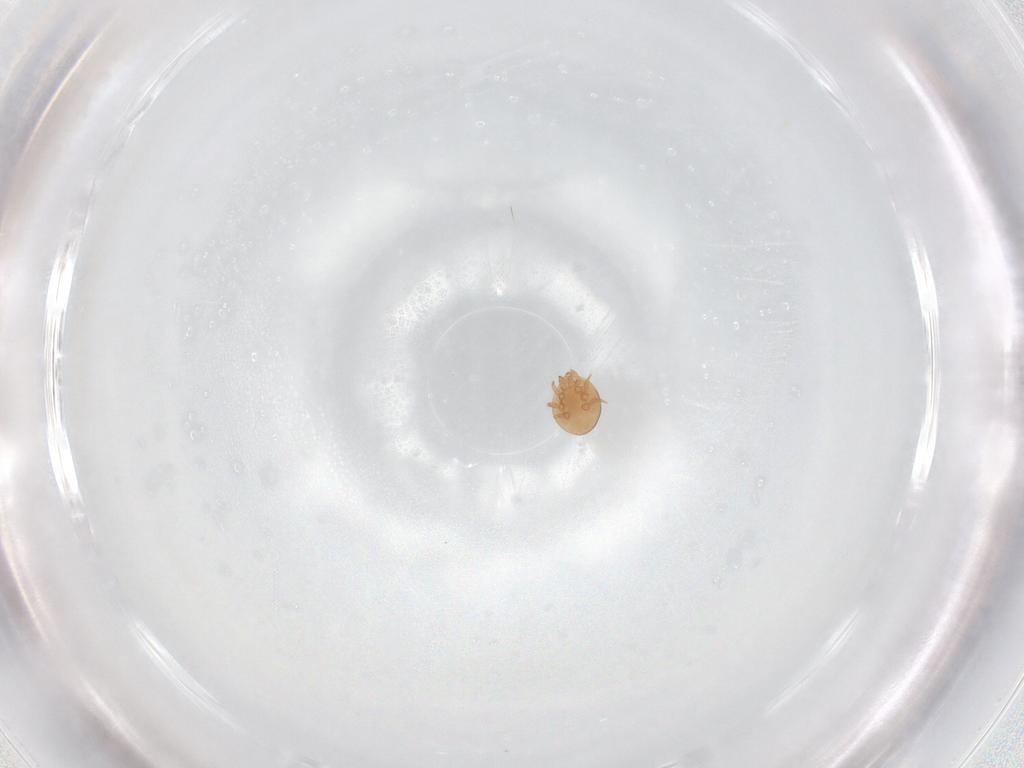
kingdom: Animalia
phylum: Arthropoda
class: Arachnida
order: Mesostigmata
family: Trematuridae
